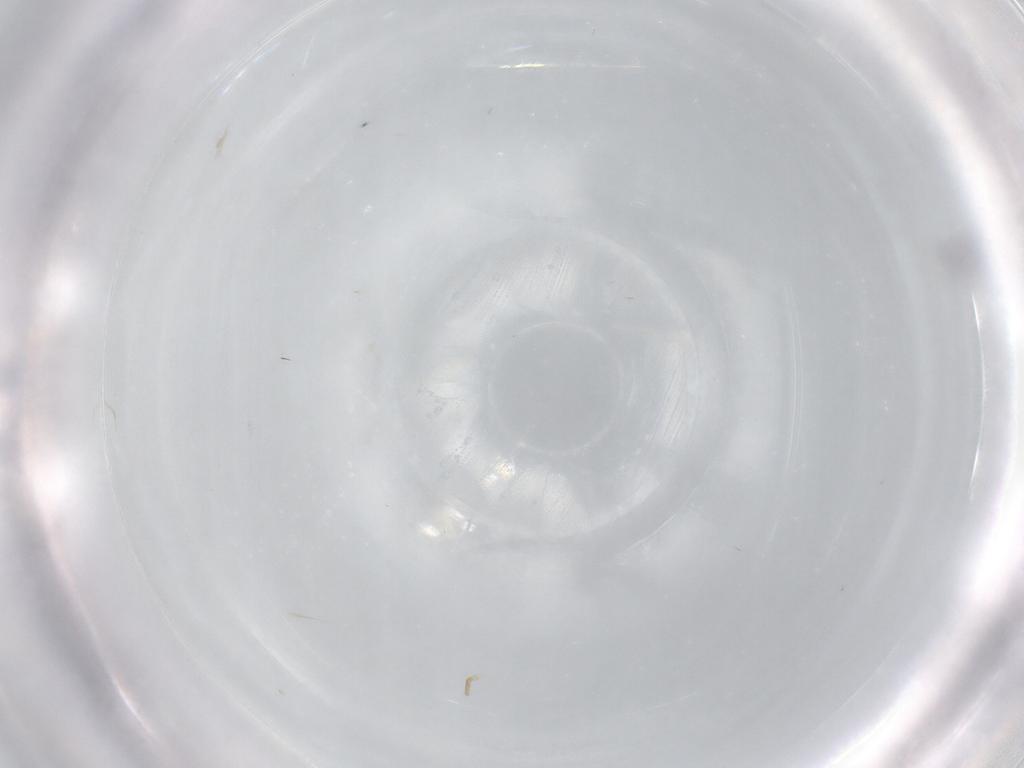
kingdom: Animalia
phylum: Arthropoda
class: Collembola
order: Entomobryomorpha
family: Entomobryidae
